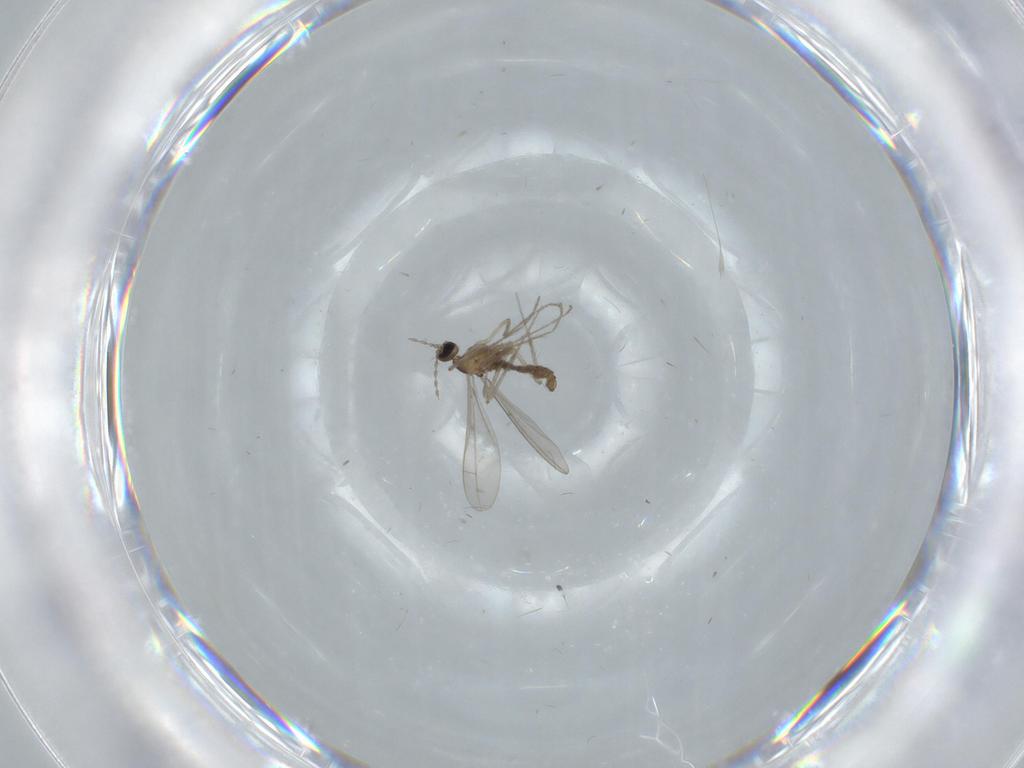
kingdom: Animalia
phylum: Arthropoda
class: Insecta
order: Diptera
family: Cecidomyiidae
